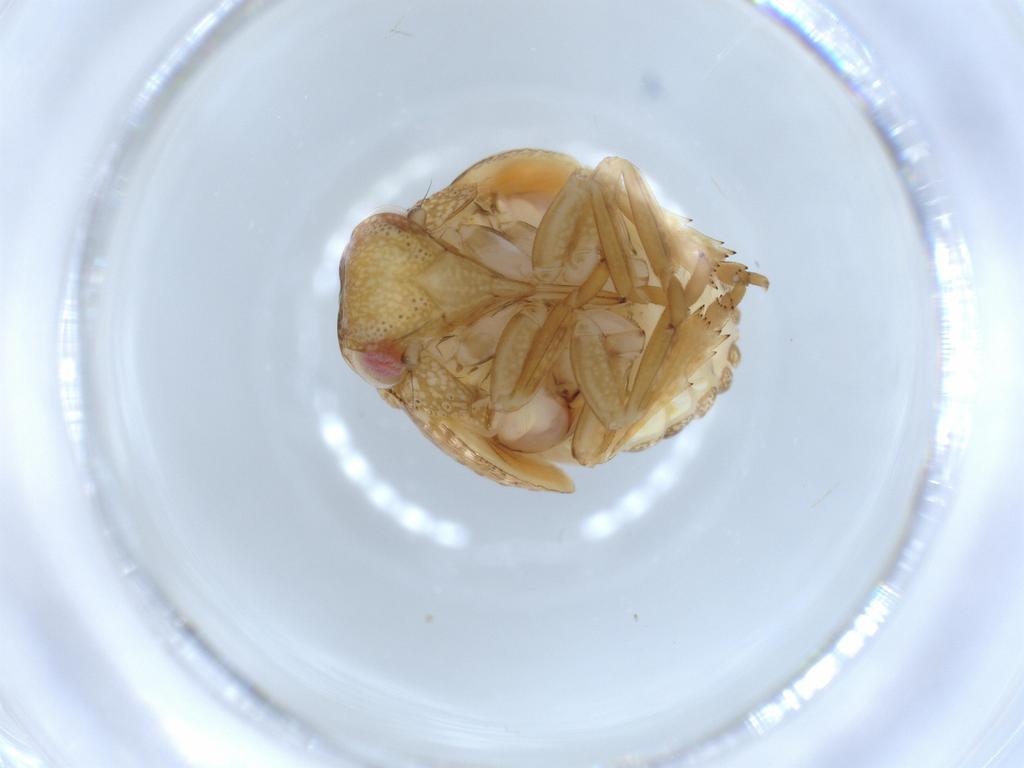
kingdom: Animalia
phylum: Arthropoda
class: Insecta
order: Hemiptera
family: Acanaloniidae
